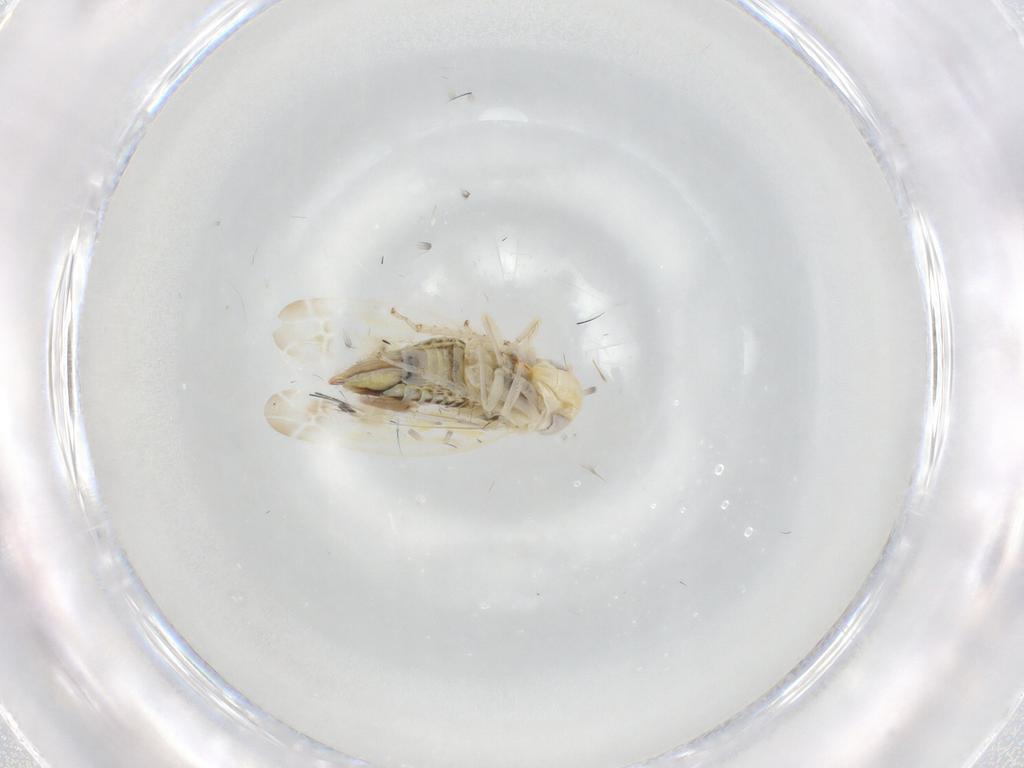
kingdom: Animalia
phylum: Arthropoda
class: Insecta
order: Hemiptera
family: Cicadellidae
